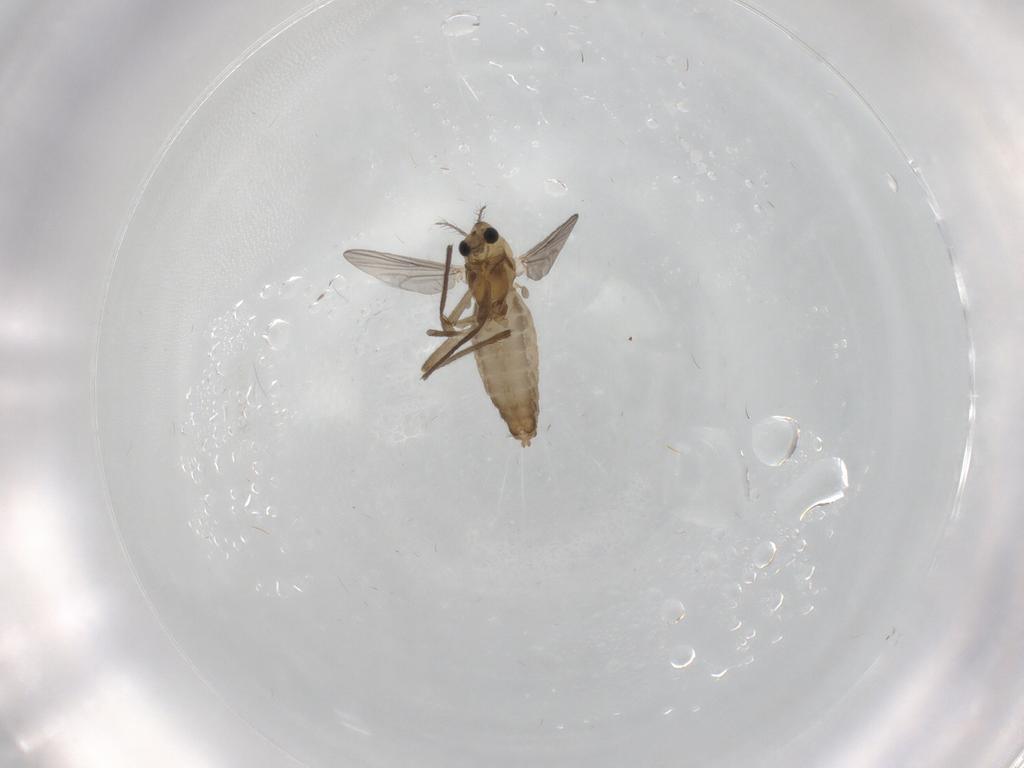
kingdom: Animalia
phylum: Arthropoda
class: Insecta
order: Diptera
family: Chironomidae
